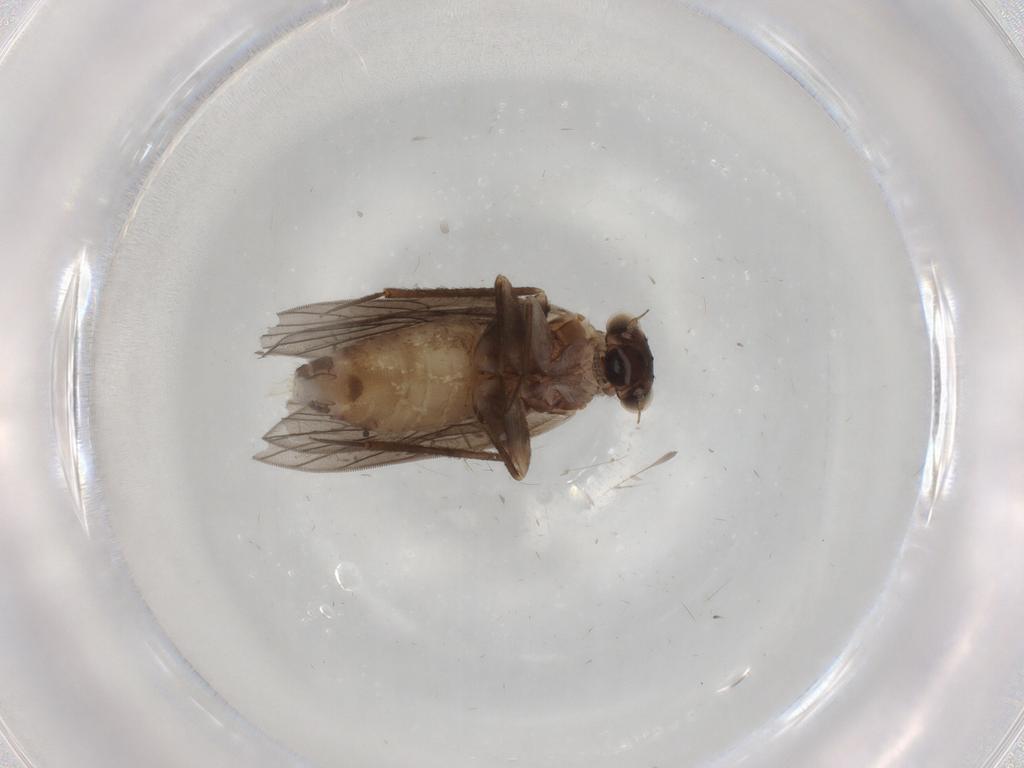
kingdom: Animalia
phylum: Arthropoda
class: Insecta
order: Psocodea
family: Lepidopsocidae
